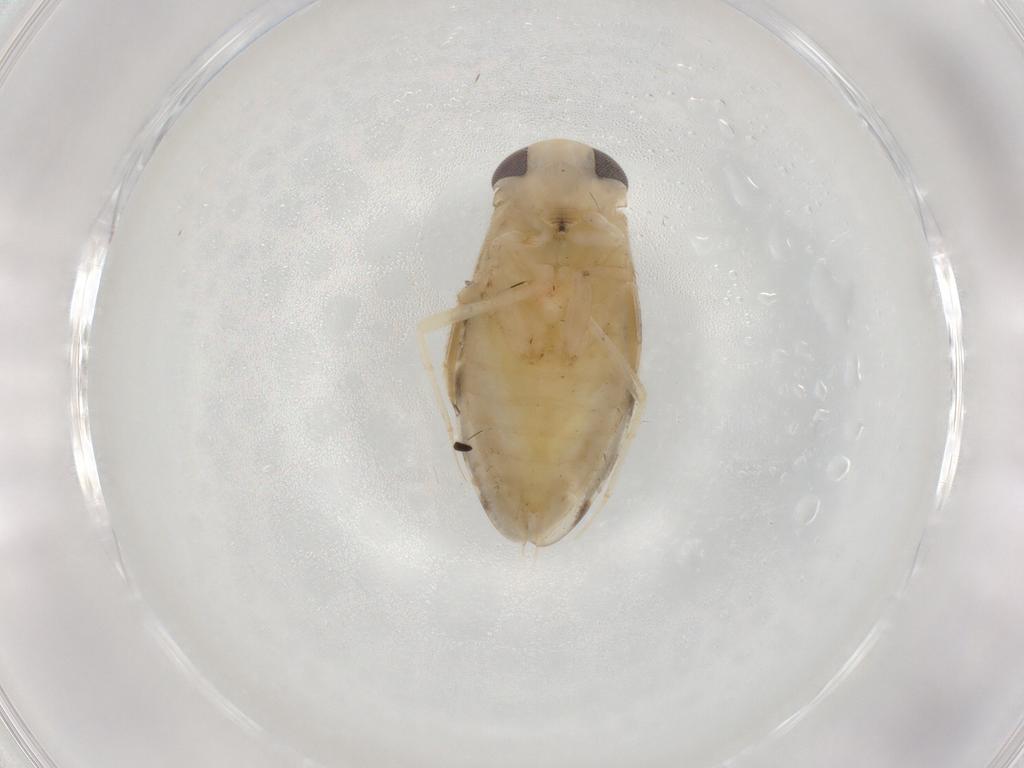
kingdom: Animalia
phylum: Arthropoda
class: Insecta
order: Hemiptera
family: Corixidae
